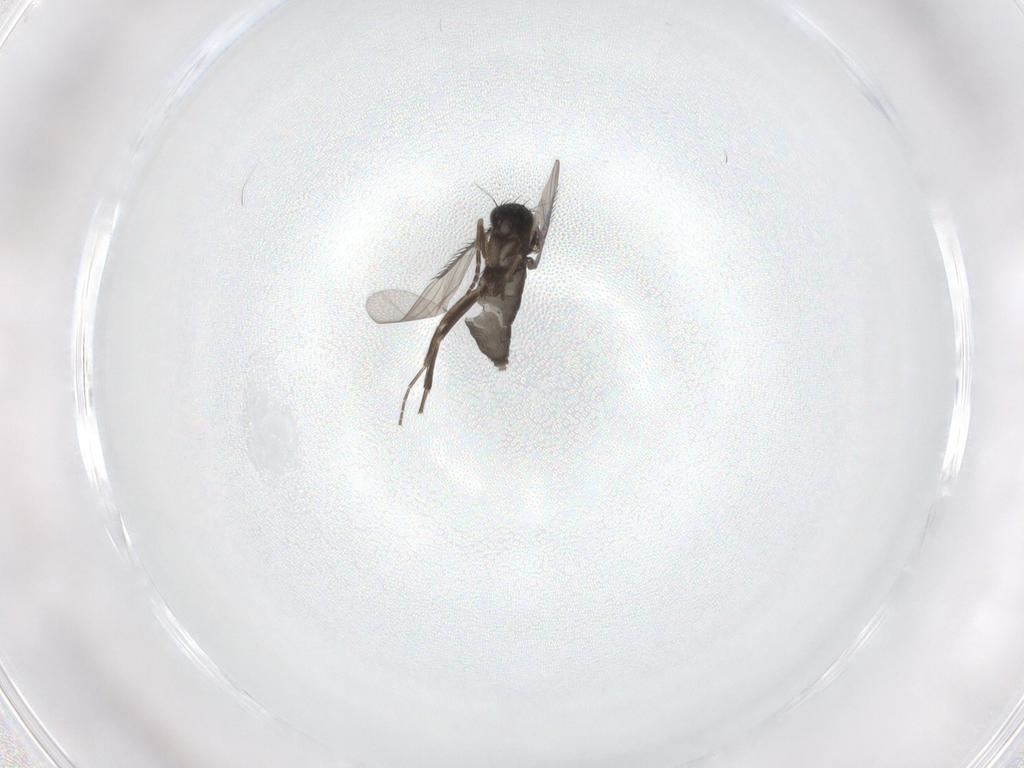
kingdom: Animalia
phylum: Arthropoda
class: Insecta
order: Diptera
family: Phoridae
